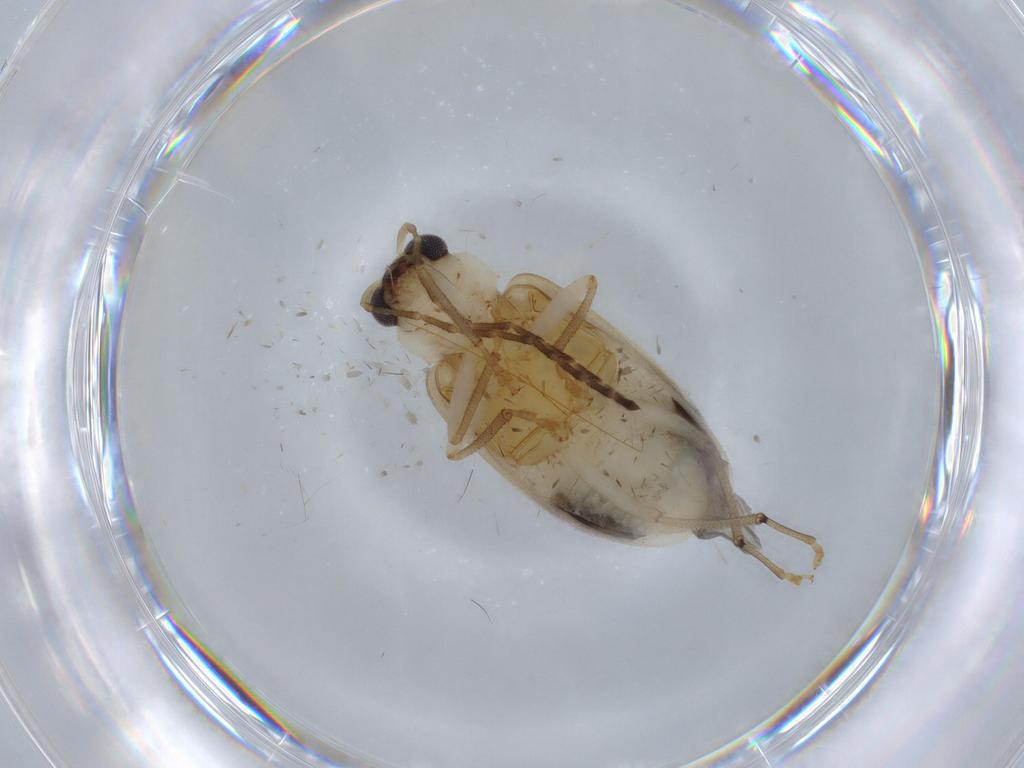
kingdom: Animalia
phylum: Arthropoda
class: Insecta
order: Coleoptera
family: Chrysomelidae
